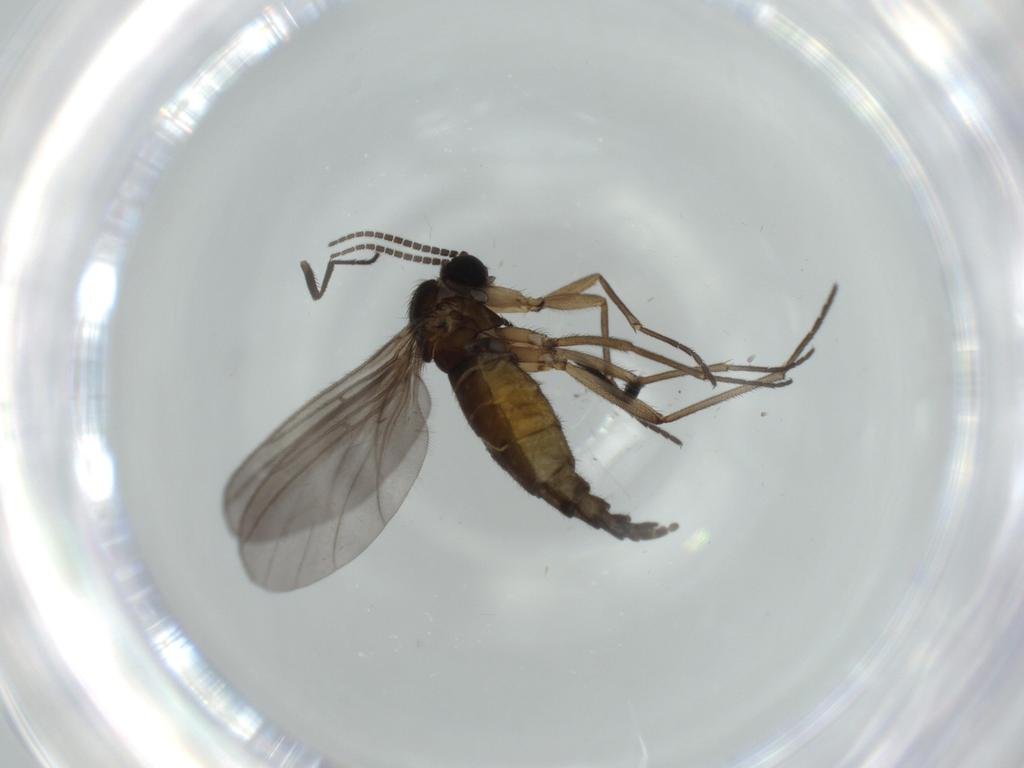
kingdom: Animalia
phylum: Arthropoda
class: Insecta
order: Diptera
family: Sciaridae
